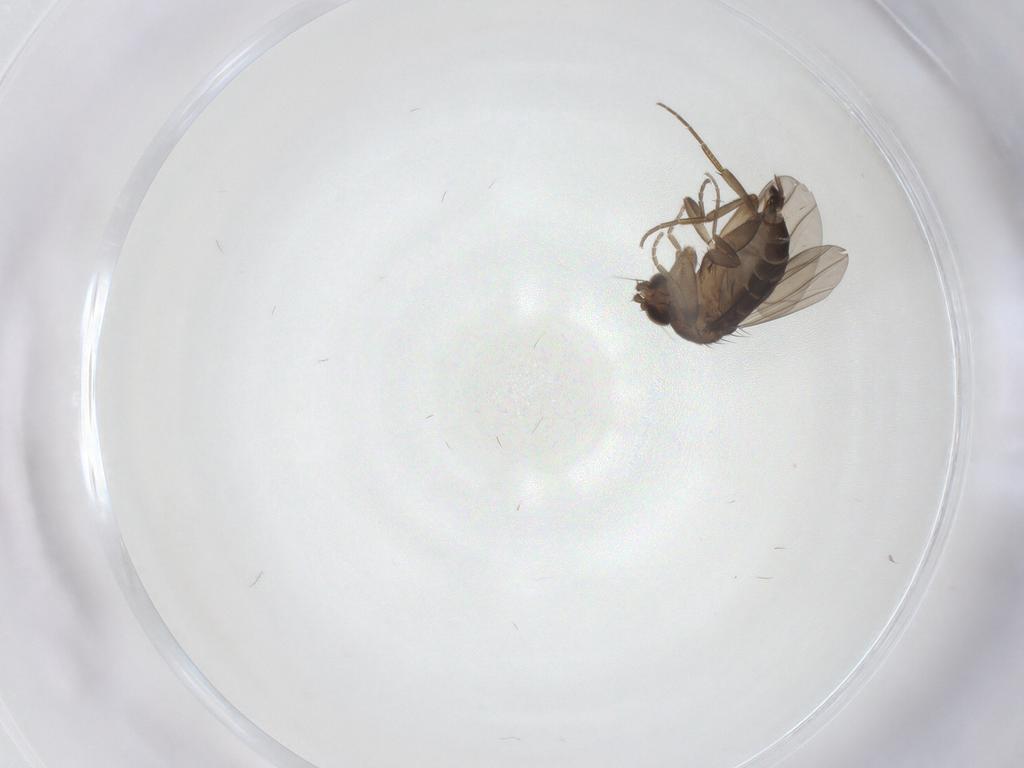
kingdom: Animalia
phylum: Arthropoda
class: Insecta
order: Diptera
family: Phoridae
